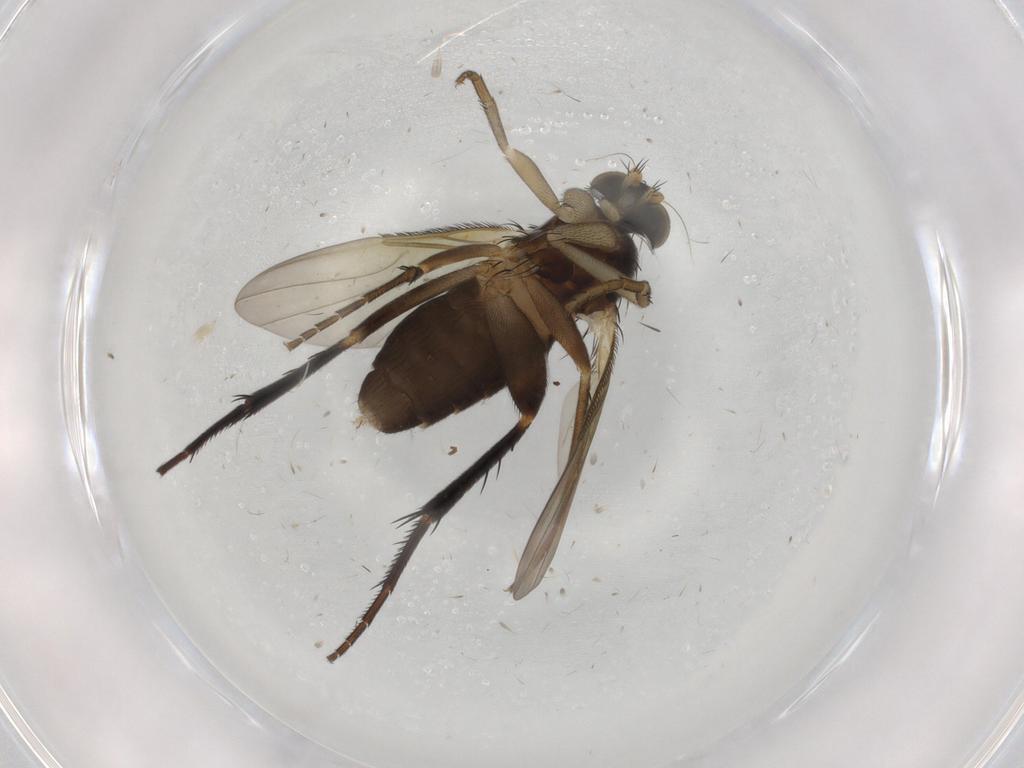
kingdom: Animalia
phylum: Arthropoda
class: Insecta
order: Diptera
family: Phoridae
